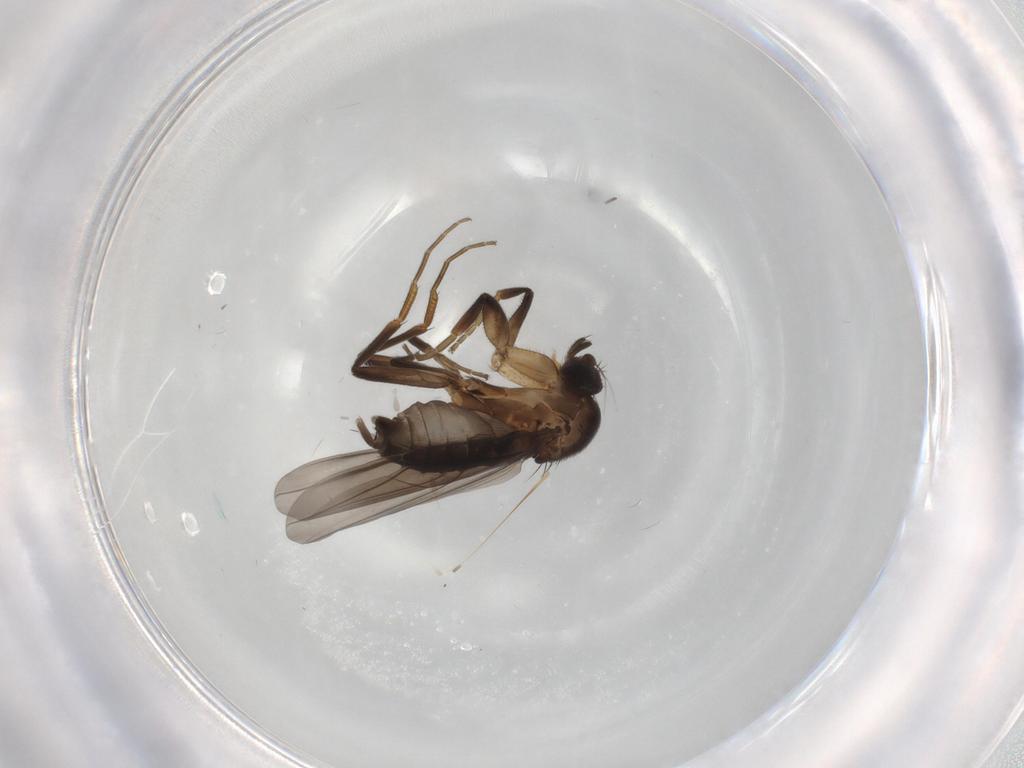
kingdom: Animalia
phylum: Arthropoda
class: Insecta
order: Diptera
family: Phoridae
